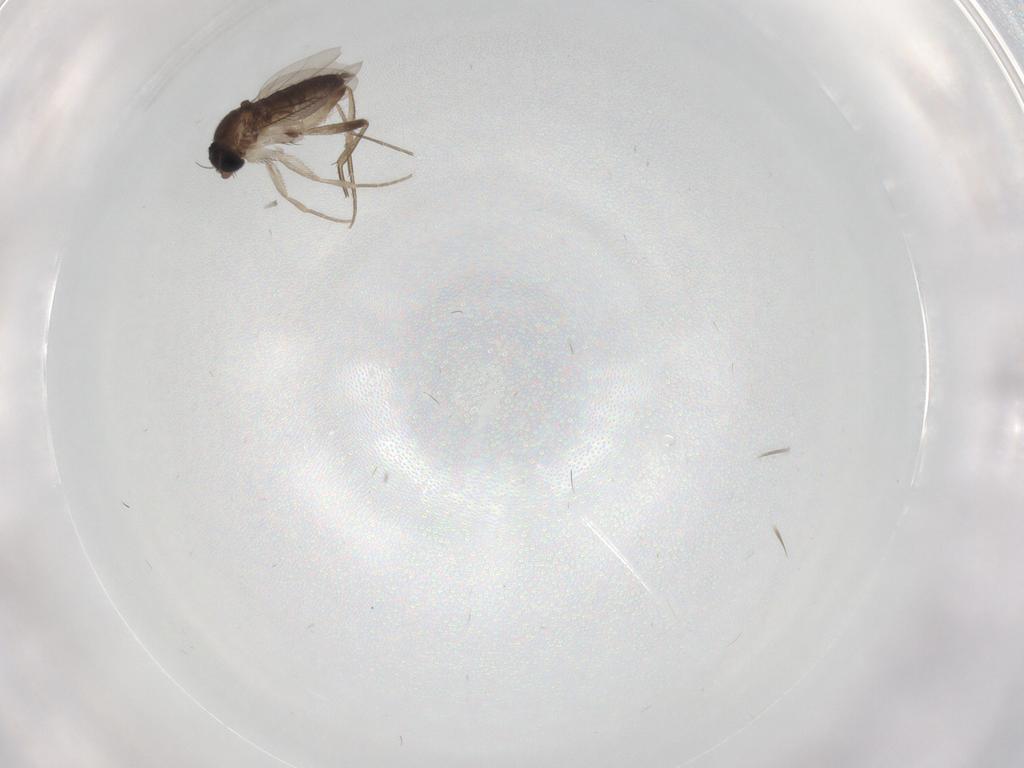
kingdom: Animalia
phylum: Arthropoda
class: Insecta
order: Diptera
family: Phoridae
